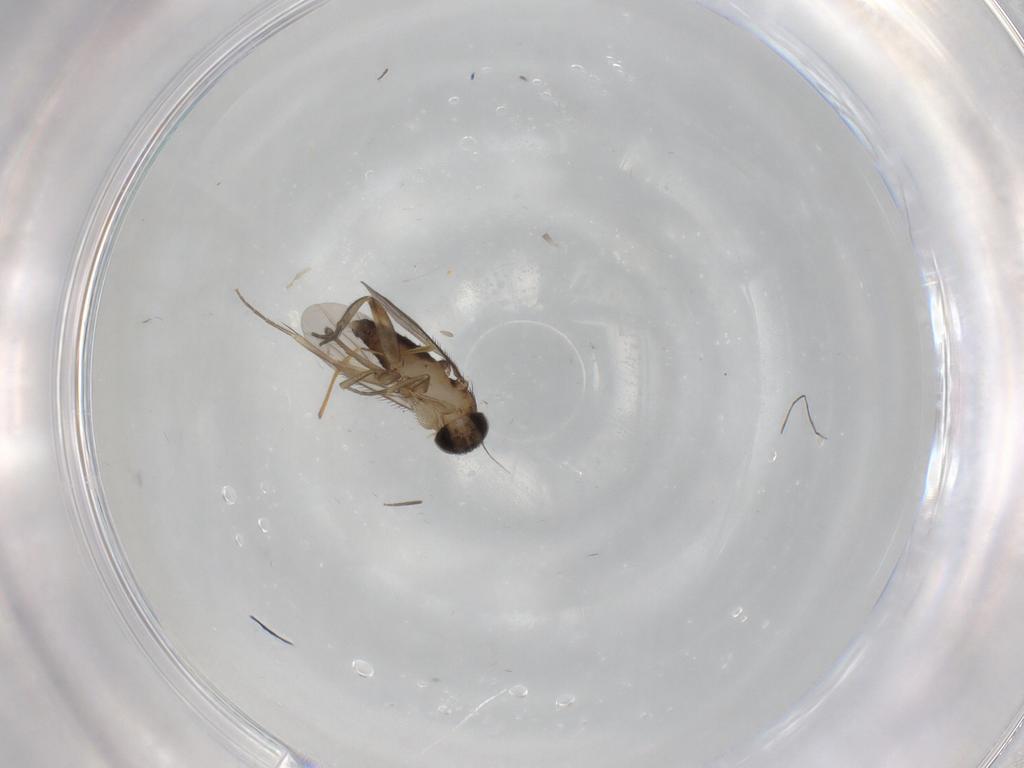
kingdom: Animalia
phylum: Arthropoda
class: Insecta
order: Diptera
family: Phoridae
